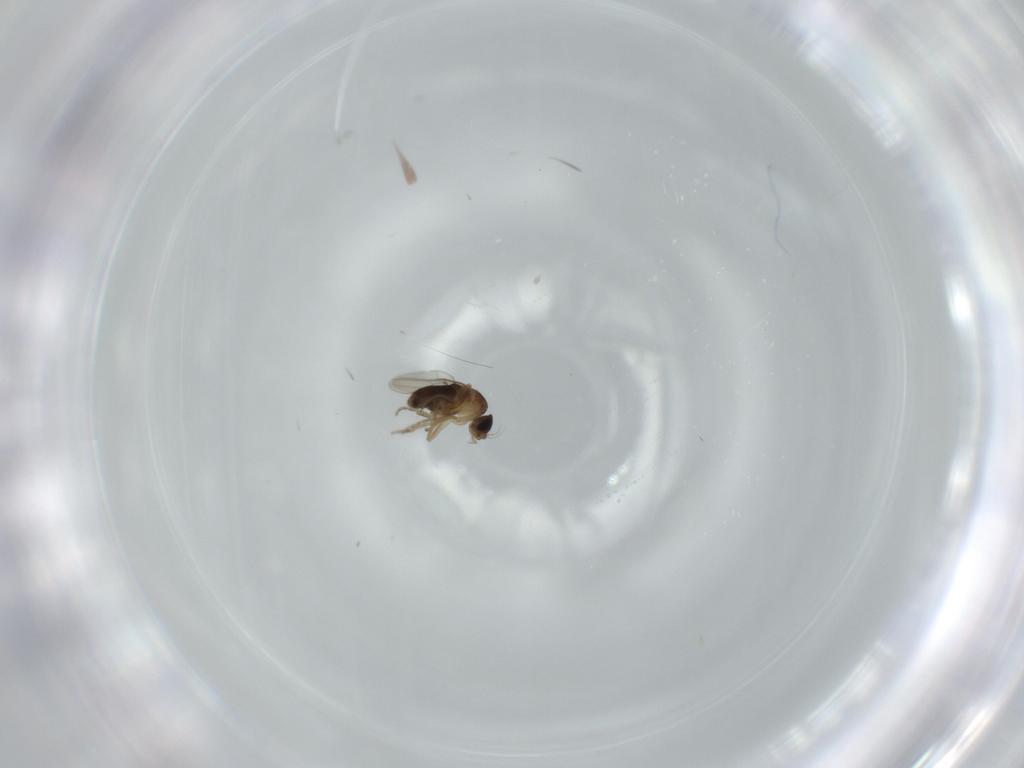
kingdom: Animalia
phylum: Arthropoda
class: Insecta
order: Diptera
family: Phoridae
